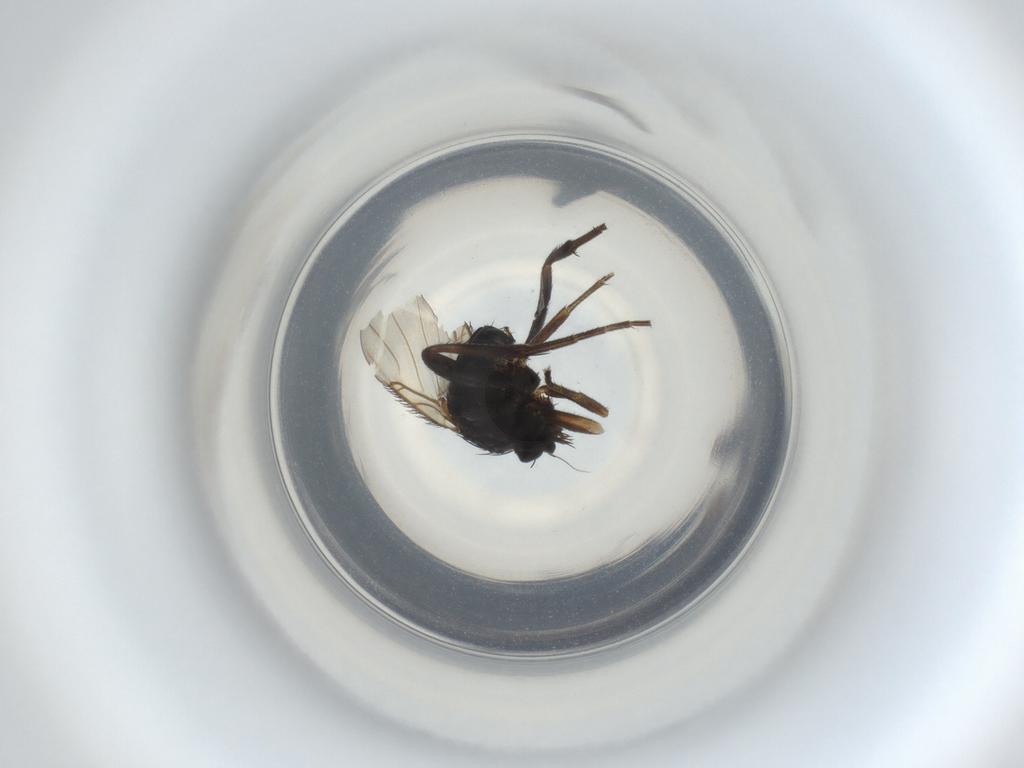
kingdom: Animalia
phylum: Arthropoda
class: Insecta
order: Diptera
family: Phoridae
